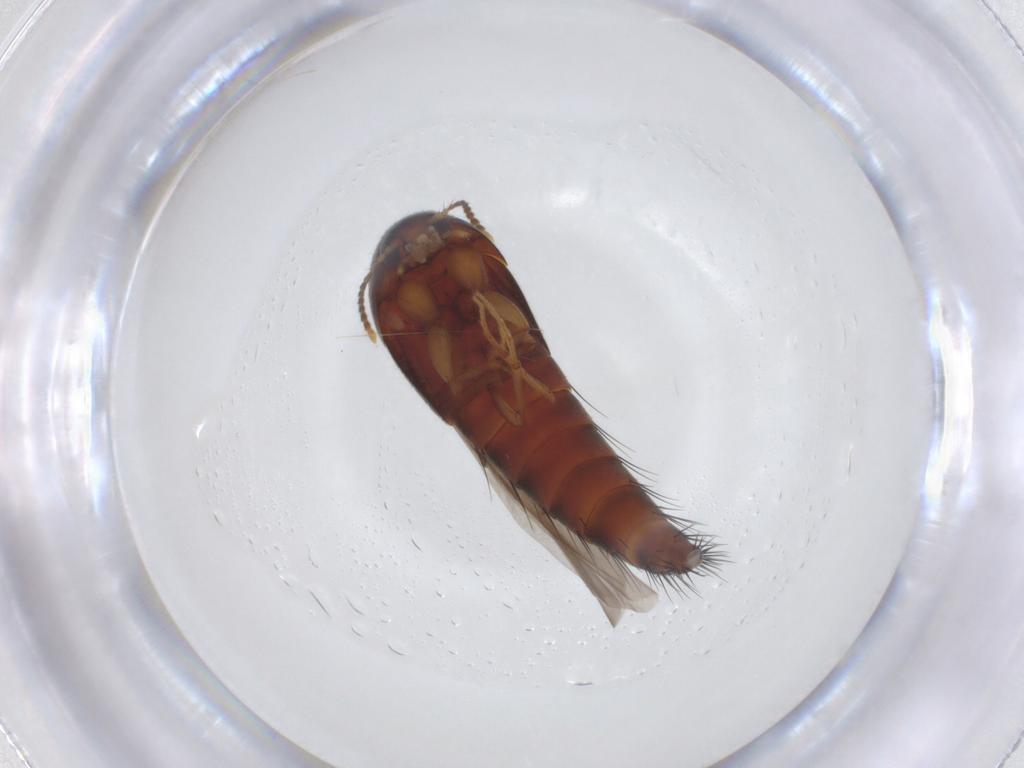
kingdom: Animalia
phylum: Arthropoda
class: Insecta
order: Coleoptera
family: Staphylinidae
